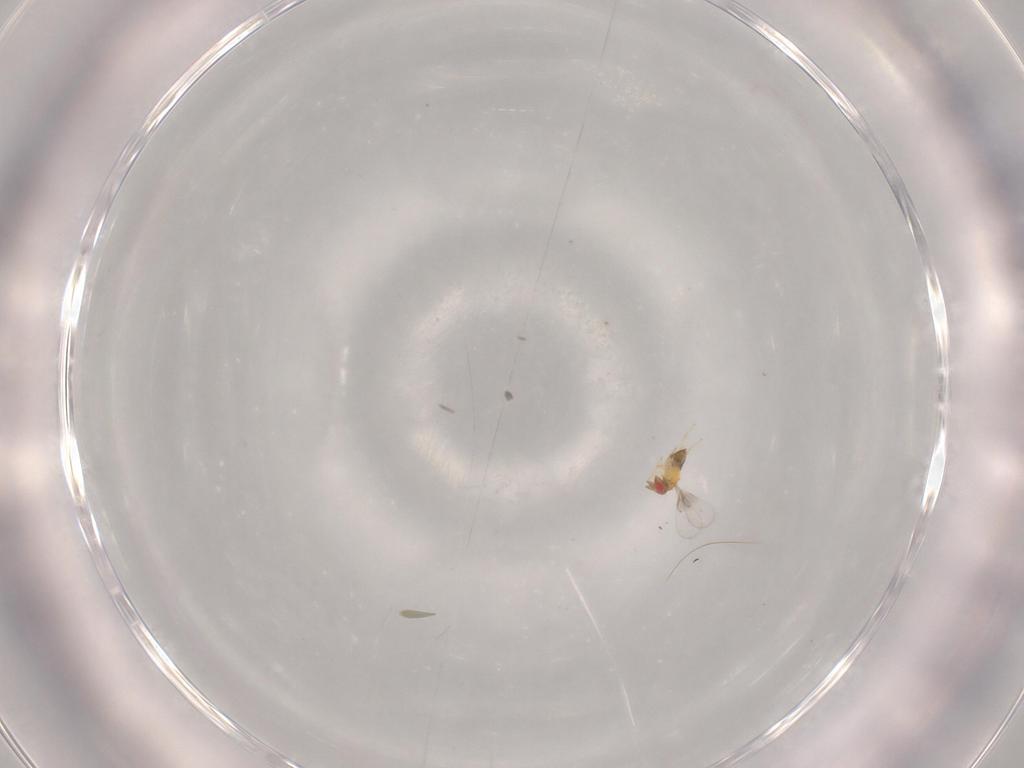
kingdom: Animalia
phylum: Arthropoda
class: Insecta
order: Hymenoptera
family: Trichogrammatidae
